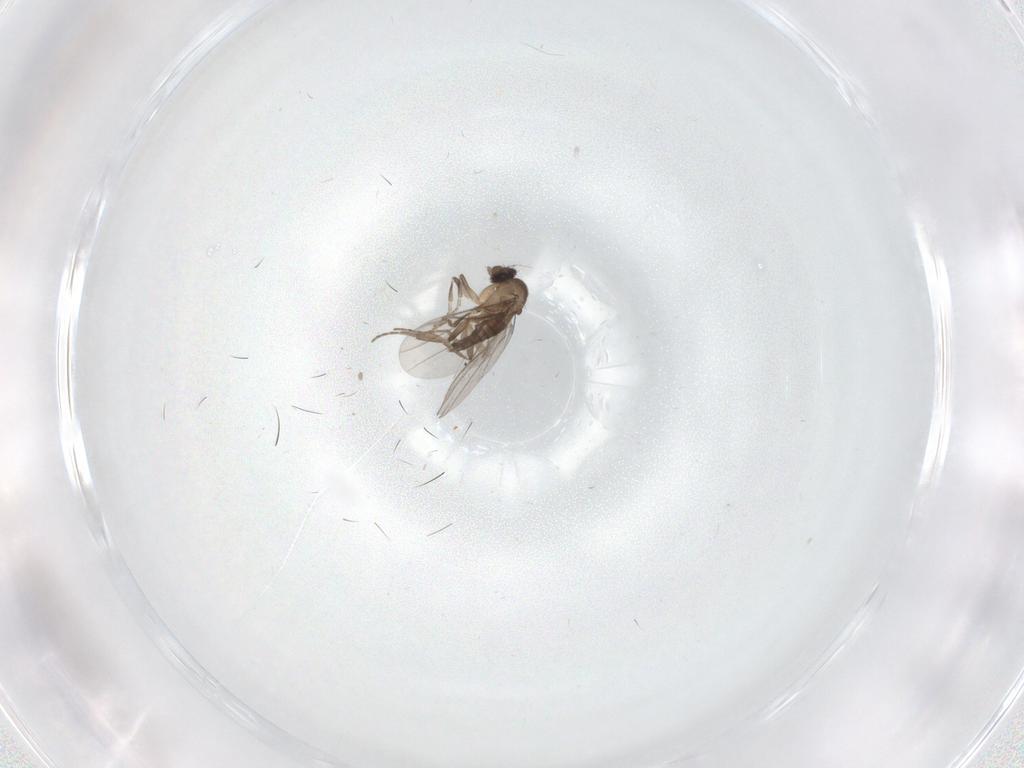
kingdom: Animalia
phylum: Arthropoda
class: Insecta
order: Diptera
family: Cecidomyiidae
